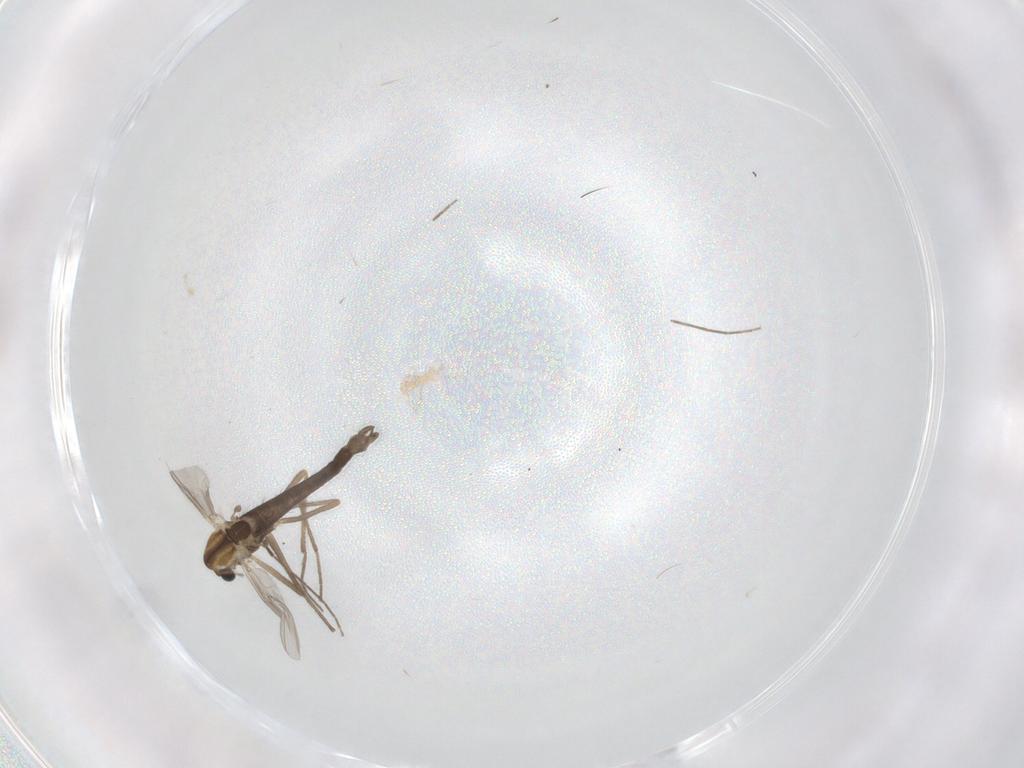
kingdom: Animalia
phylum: Arthropoda
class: Insecta
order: Diptera
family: Chironomidae
